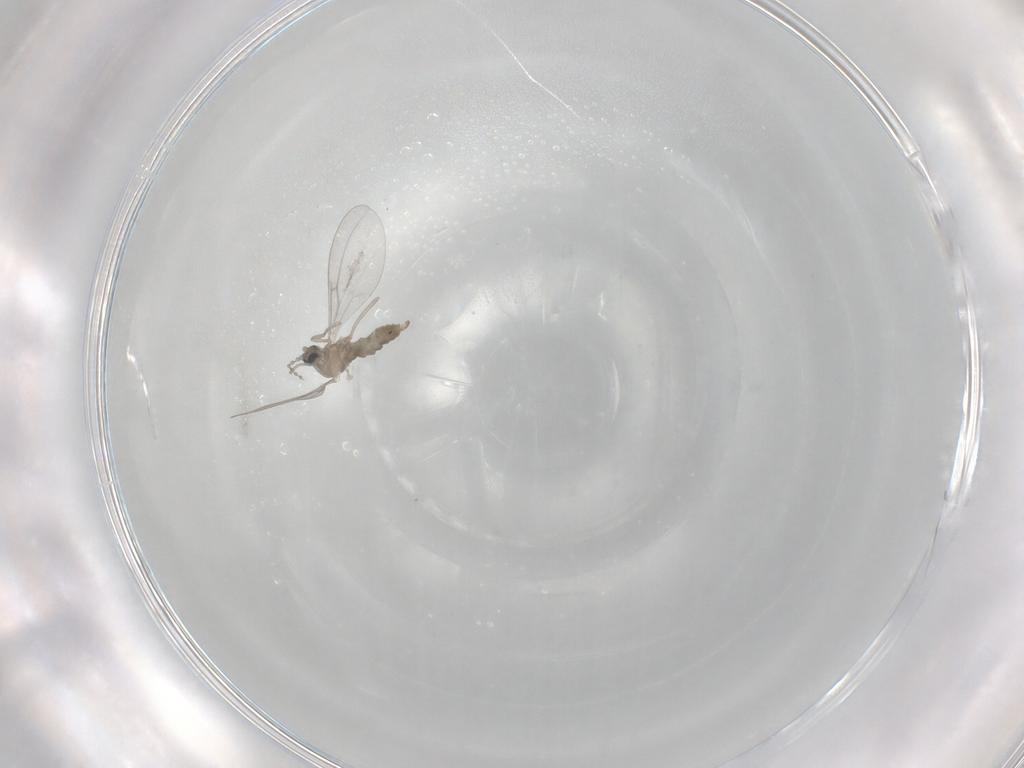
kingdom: Animalia
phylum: Arthropoda
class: Insecta
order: Diptera
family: Cecidomyiidae
